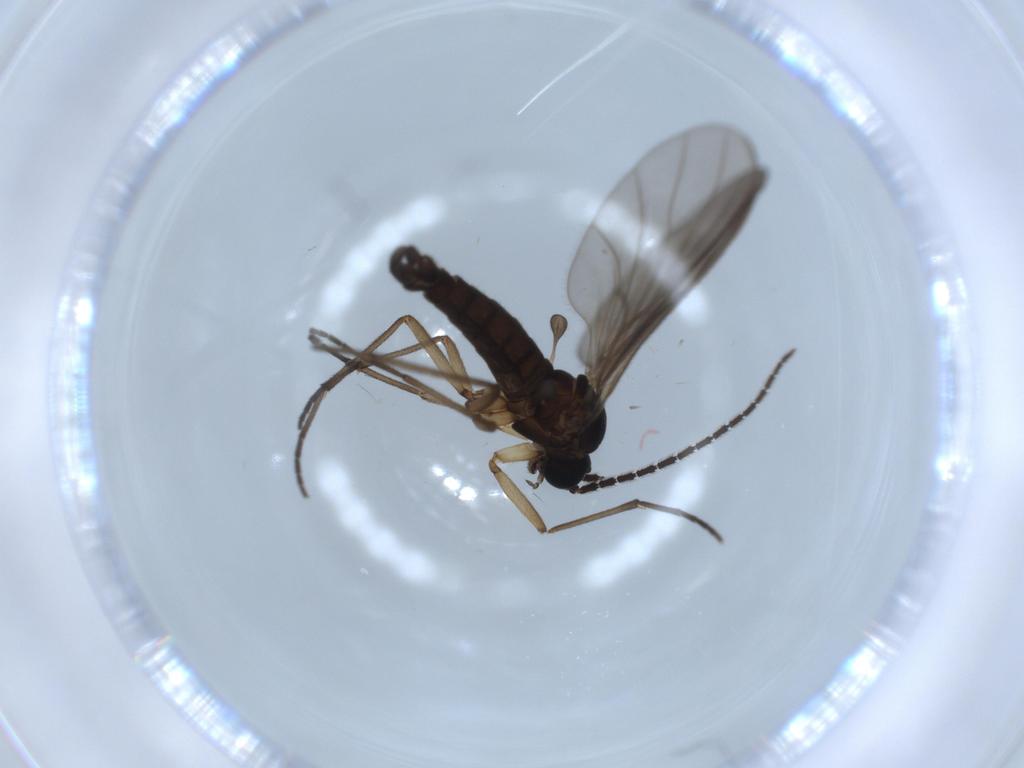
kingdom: Animalia
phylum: Arthropoda
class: Insecta
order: Diptera
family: Sciaridae
